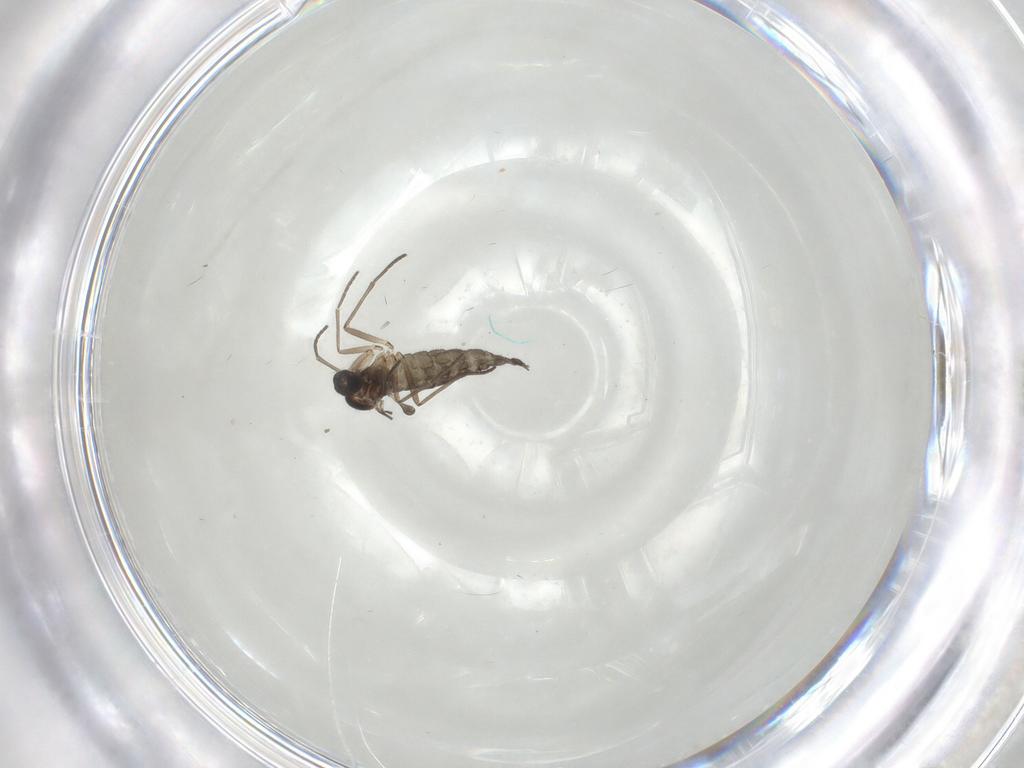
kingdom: Animalia
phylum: Arthropoda
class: Insecta
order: Diptera
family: Sciaridae
